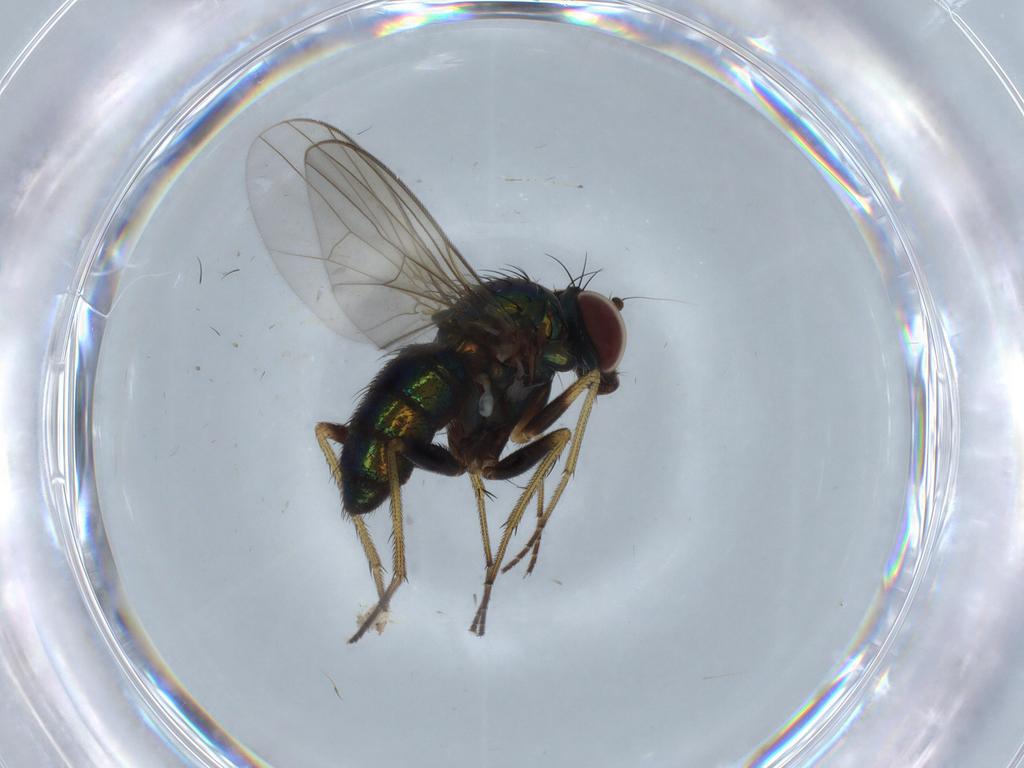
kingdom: Animalia
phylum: Arthropoda
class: Insecta
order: Diptera
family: Dolichopodidae
